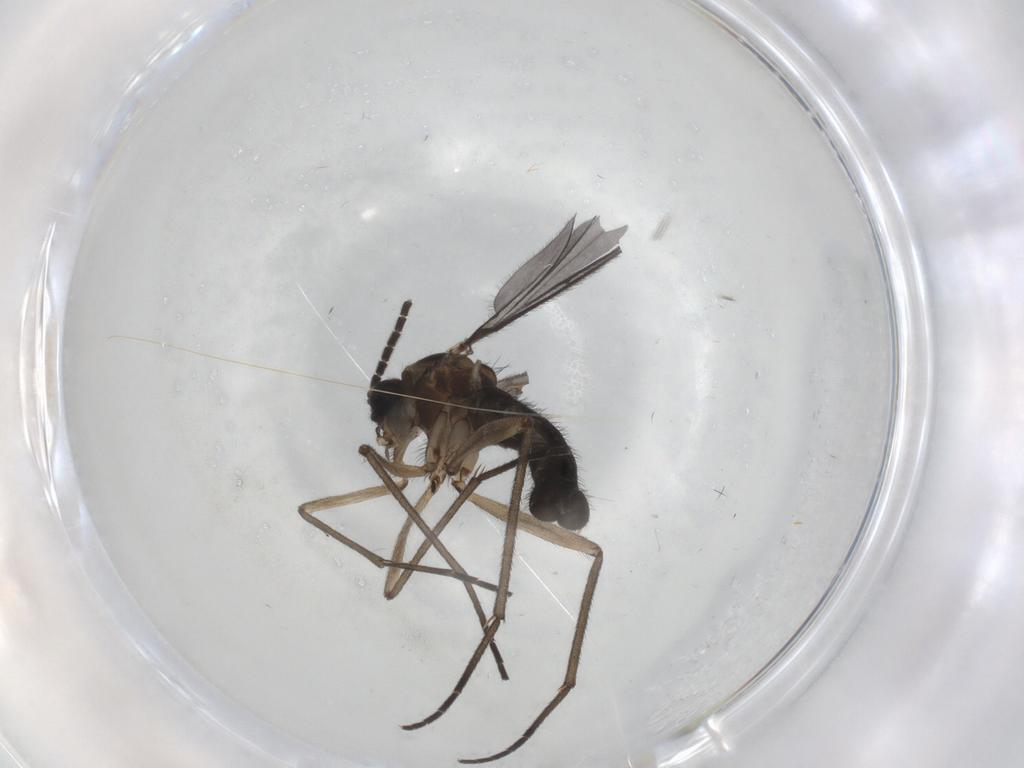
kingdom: Animalia
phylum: Arthropoda
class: Insecta
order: Diptera
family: Sciaridae
